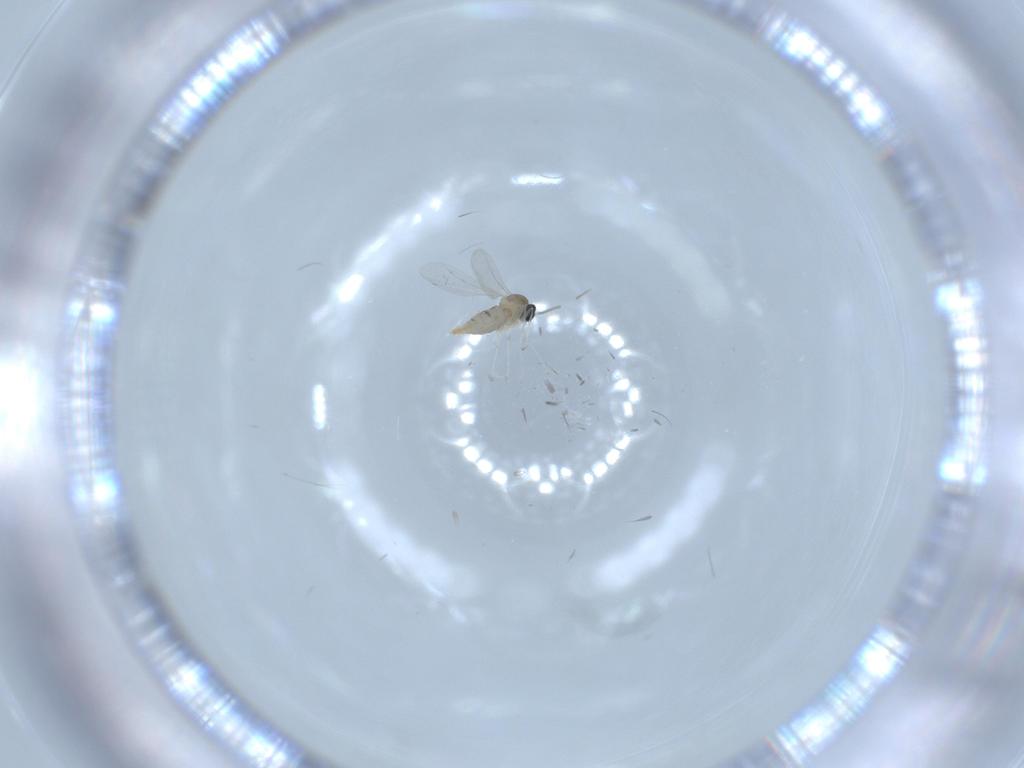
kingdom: Animalia
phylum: Arthropoda
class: Insecta
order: Diptera
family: Cecidomyiidae
